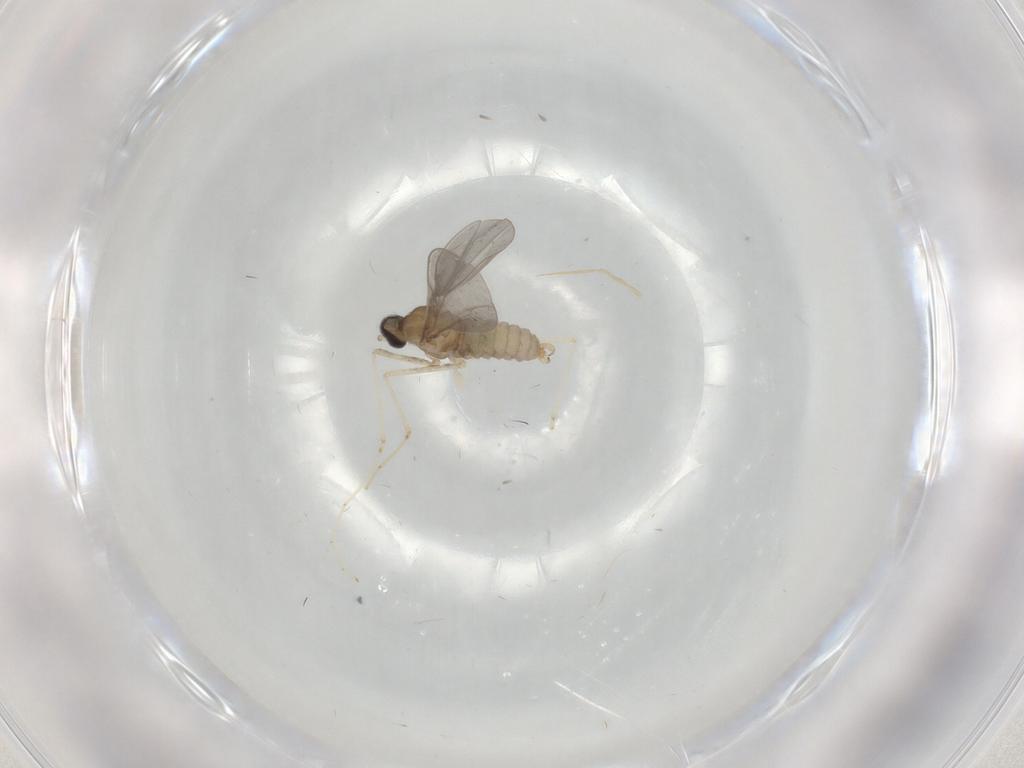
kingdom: Animalia
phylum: Arthropoda
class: Insecta
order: Diptera
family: Cecidomyiidae
